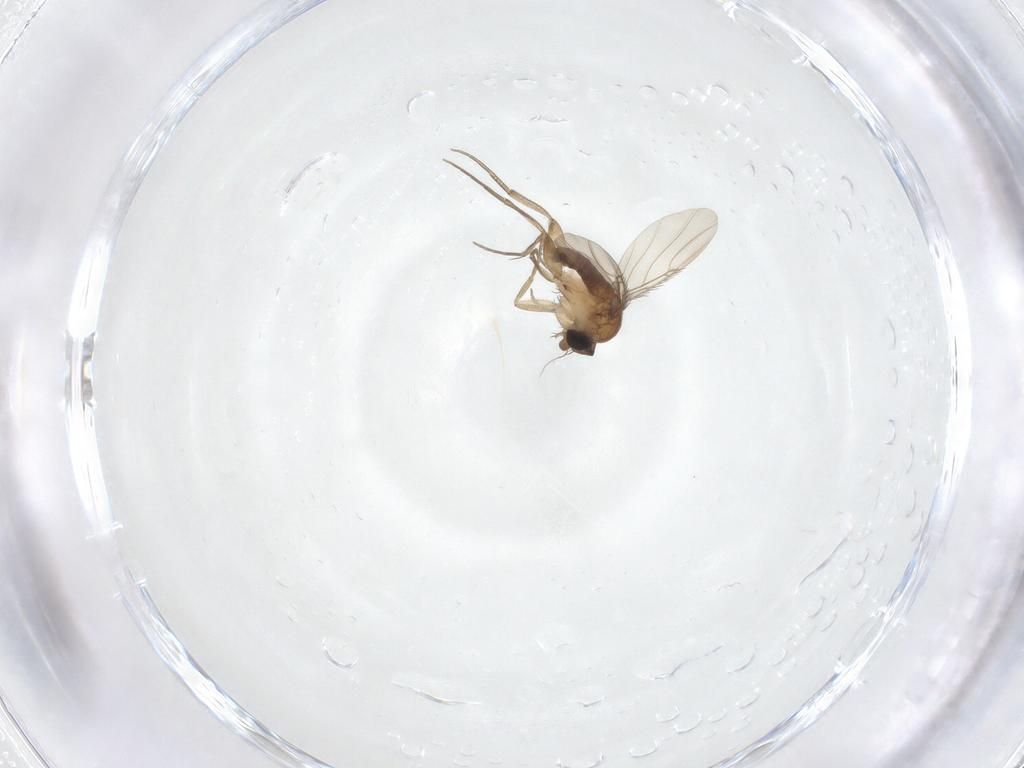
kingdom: Animalia
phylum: Arthropoda
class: Insecta
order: Diptera
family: Phoridae
